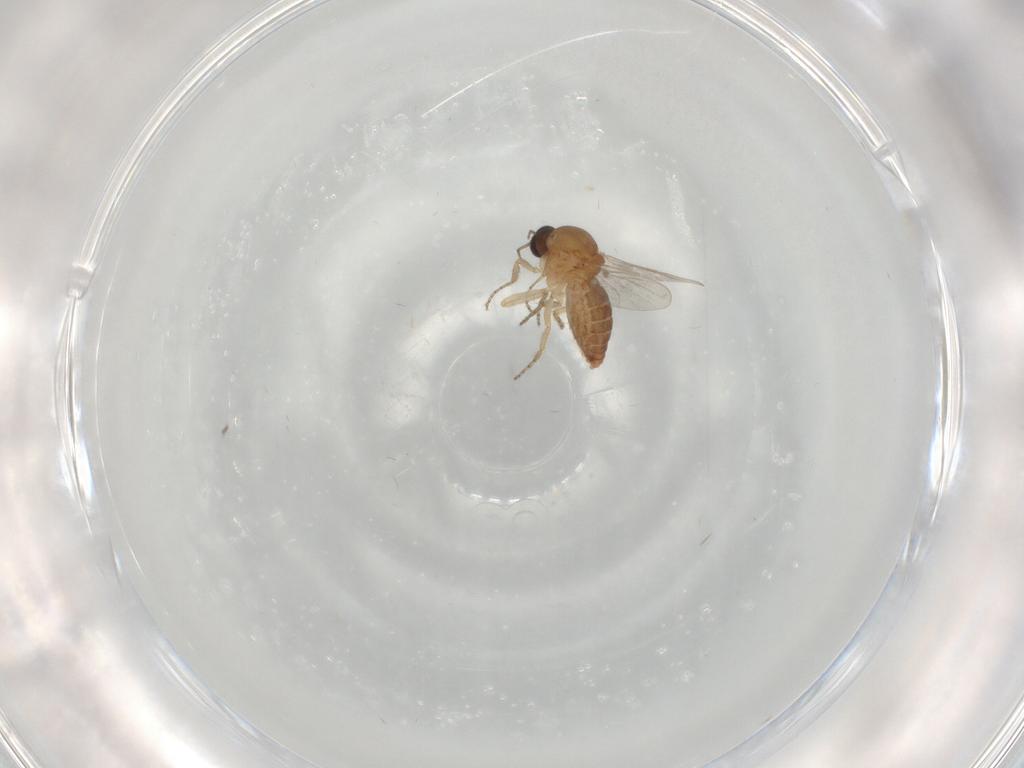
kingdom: Animalia
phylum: Arthropoda
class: Insecta
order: Diptera
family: Ceratopogonidae
